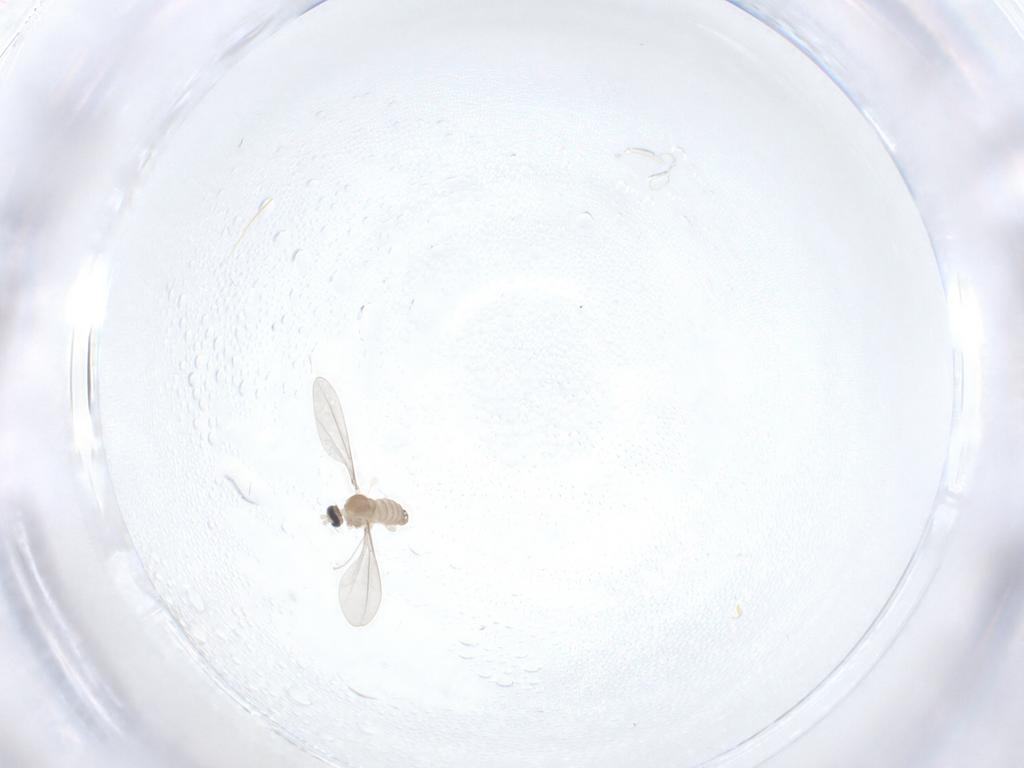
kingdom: Animalia
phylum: Arthropoda
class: Insecta
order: Diptera
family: Cecidomyiidae
